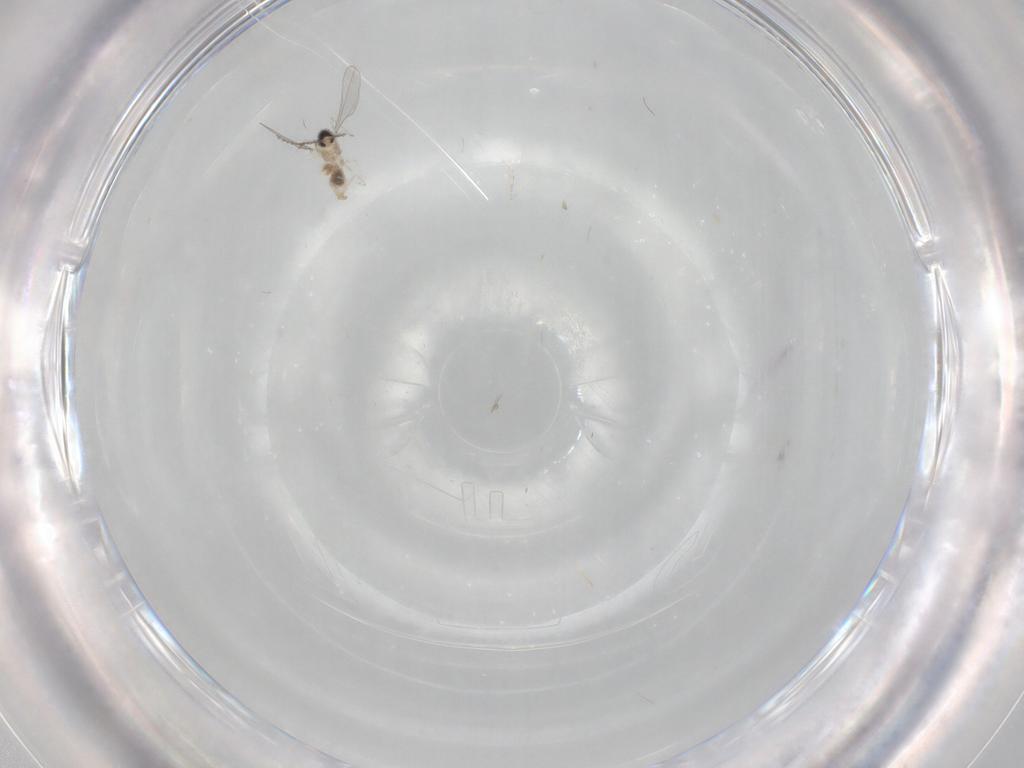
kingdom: Animalia
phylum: Arthropoda
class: Insecta
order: Diptera
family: Cecidomyiidae
